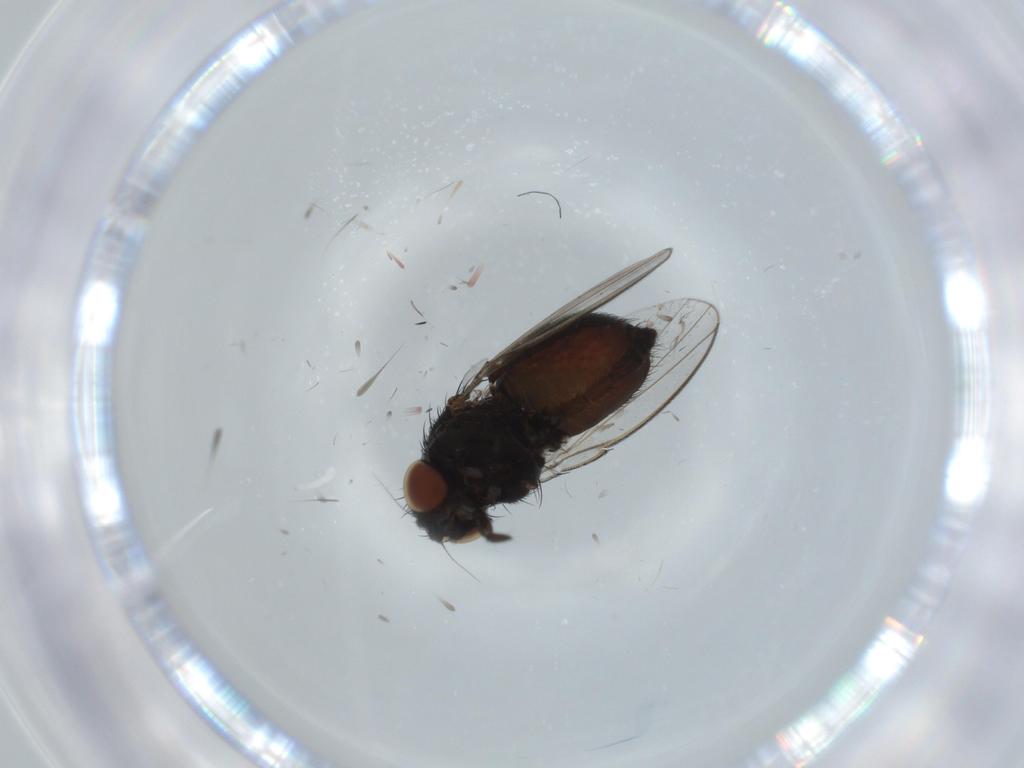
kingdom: Animalia
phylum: Arthropoda
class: Insecta
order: Diptera
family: Milichiidae
